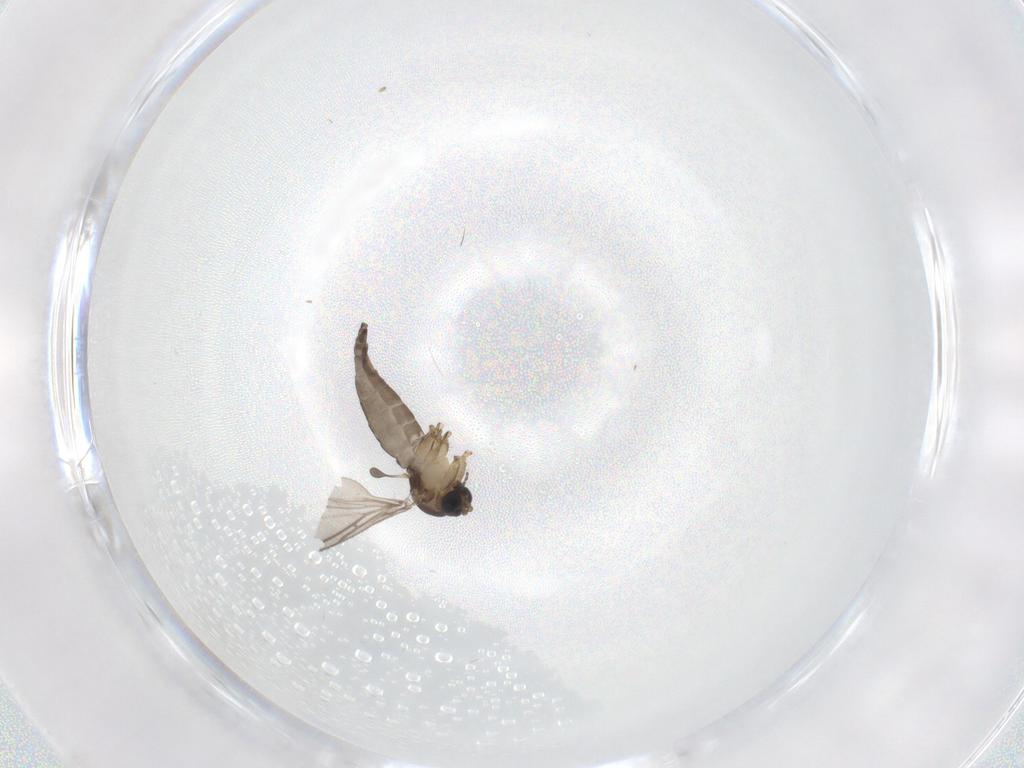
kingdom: Animalia
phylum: Arthropoda
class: Insecta
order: Diptera
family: Sciaridae
